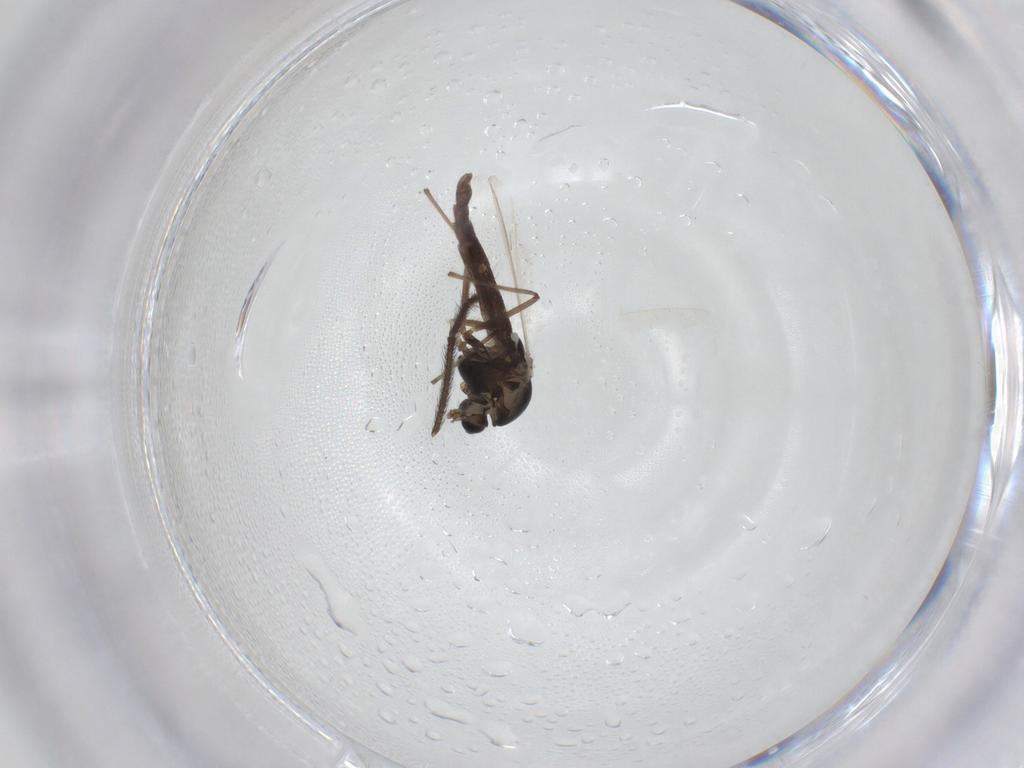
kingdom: Animalia
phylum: Arthropoda
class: Insecta
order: Diptera
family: Chironomidae
